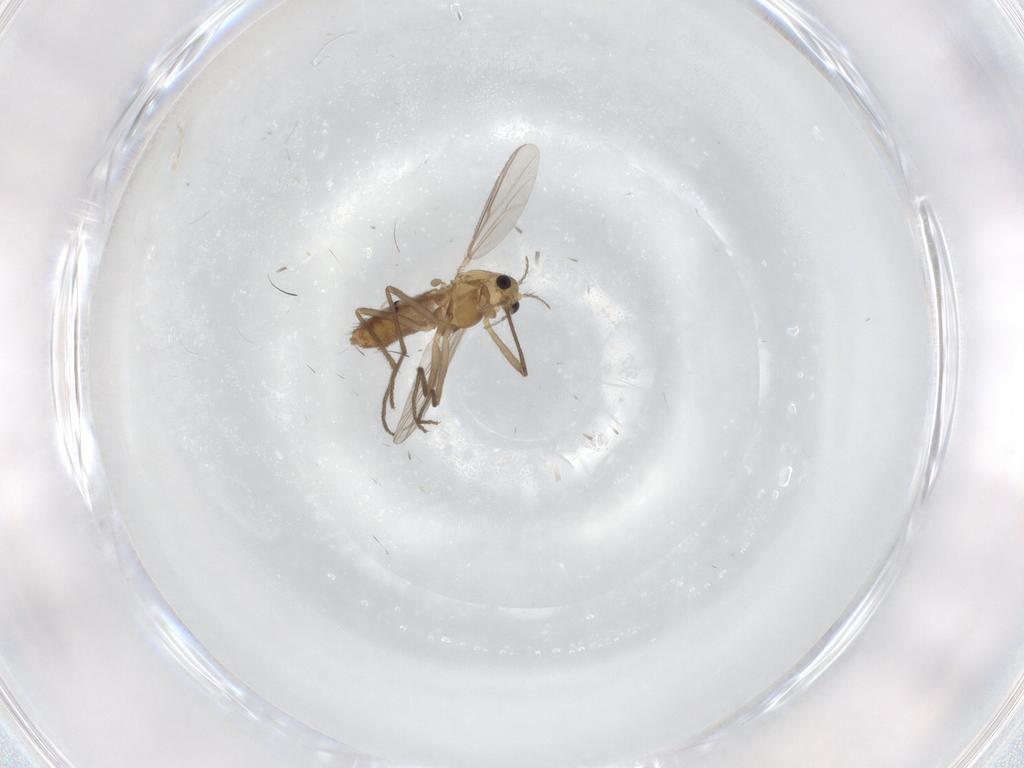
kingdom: Animalia
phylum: Arthropoda
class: Insecta
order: Diptera
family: Chironomidae
